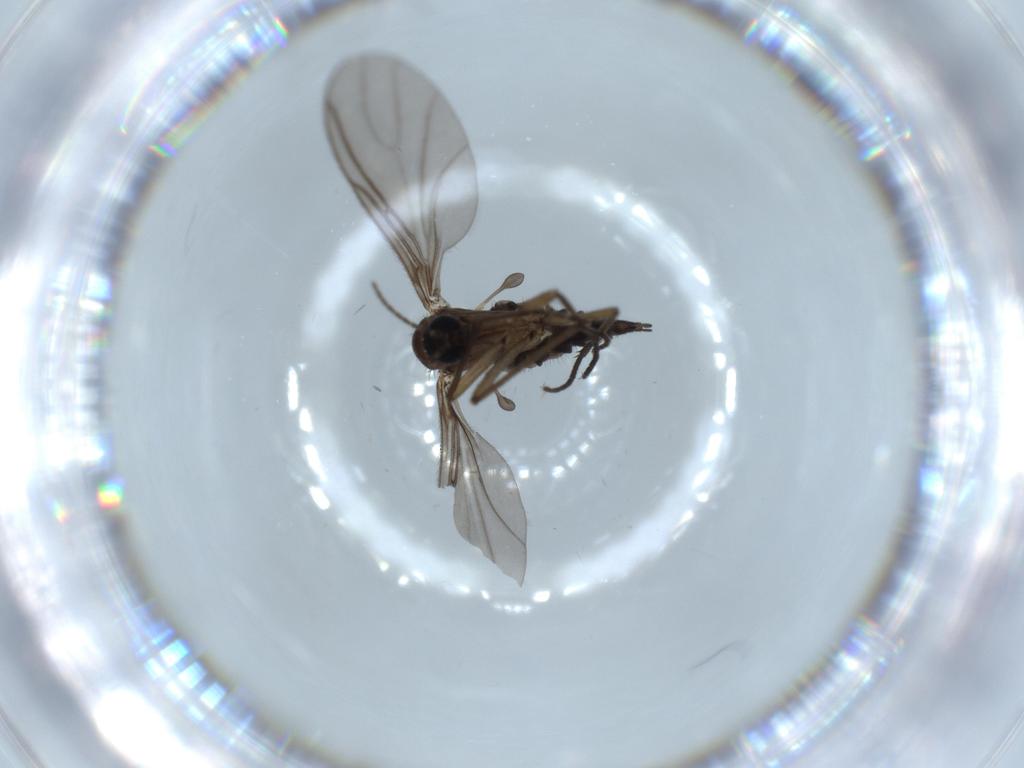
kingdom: Animalia
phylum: Arthropoda
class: Insecta
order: Diptera
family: Sciaridae
